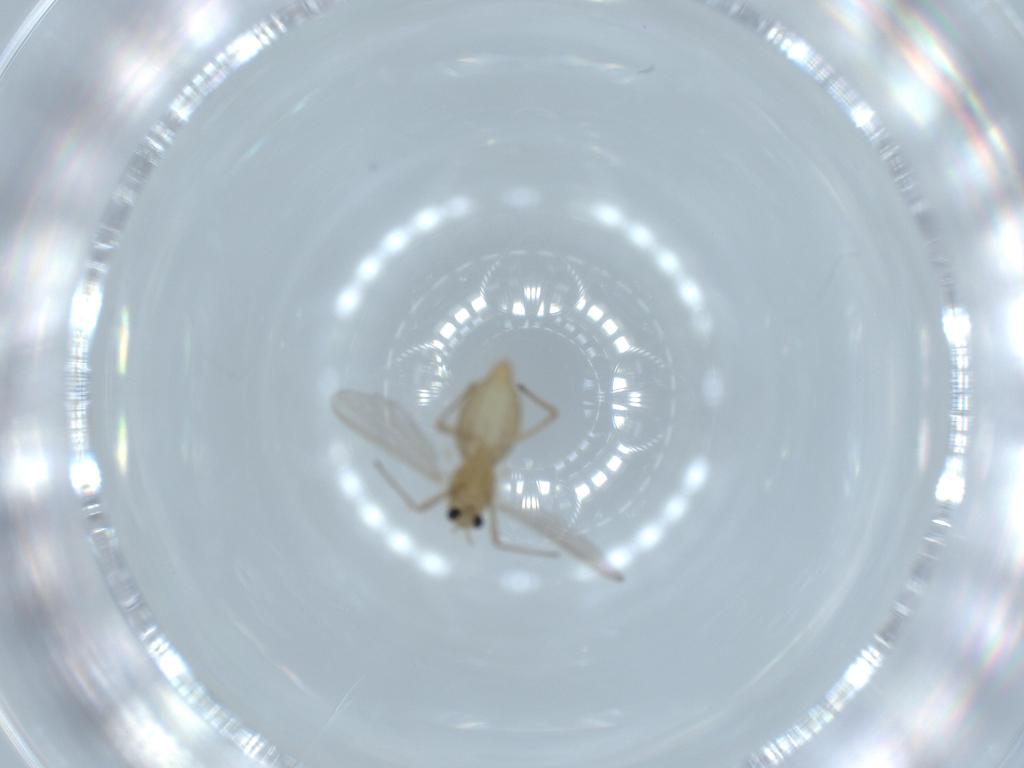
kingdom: Animalia
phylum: Arthropoda
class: Insecta
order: Diptera
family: Chironomidae
